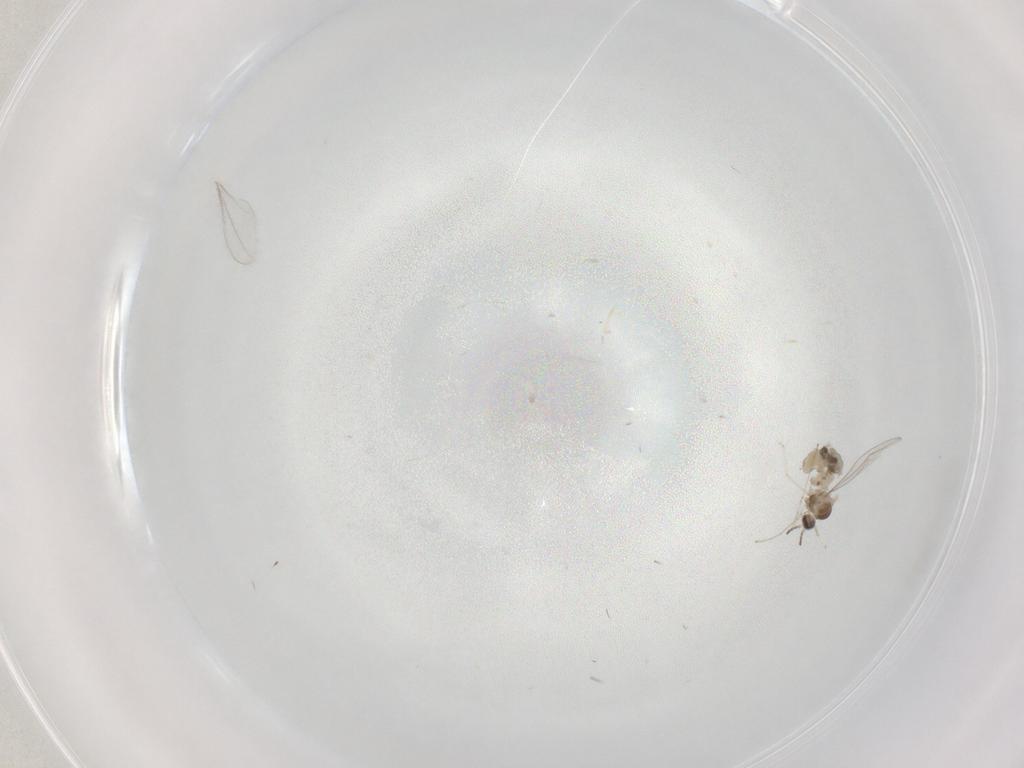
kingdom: Animalia
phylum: Arthropoda
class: Insecta
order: Diptera
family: Cecidomyiidae
